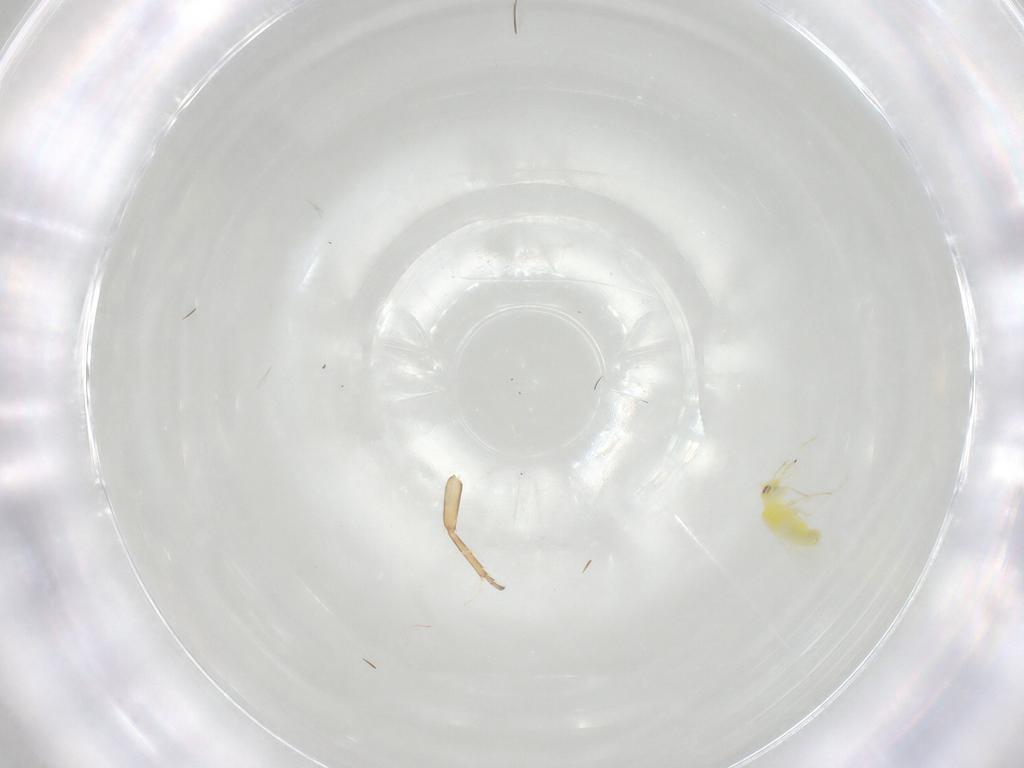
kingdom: Animalia
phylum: Arthropoda
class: Insecta
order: Hemiptera
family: Cicadellidae
